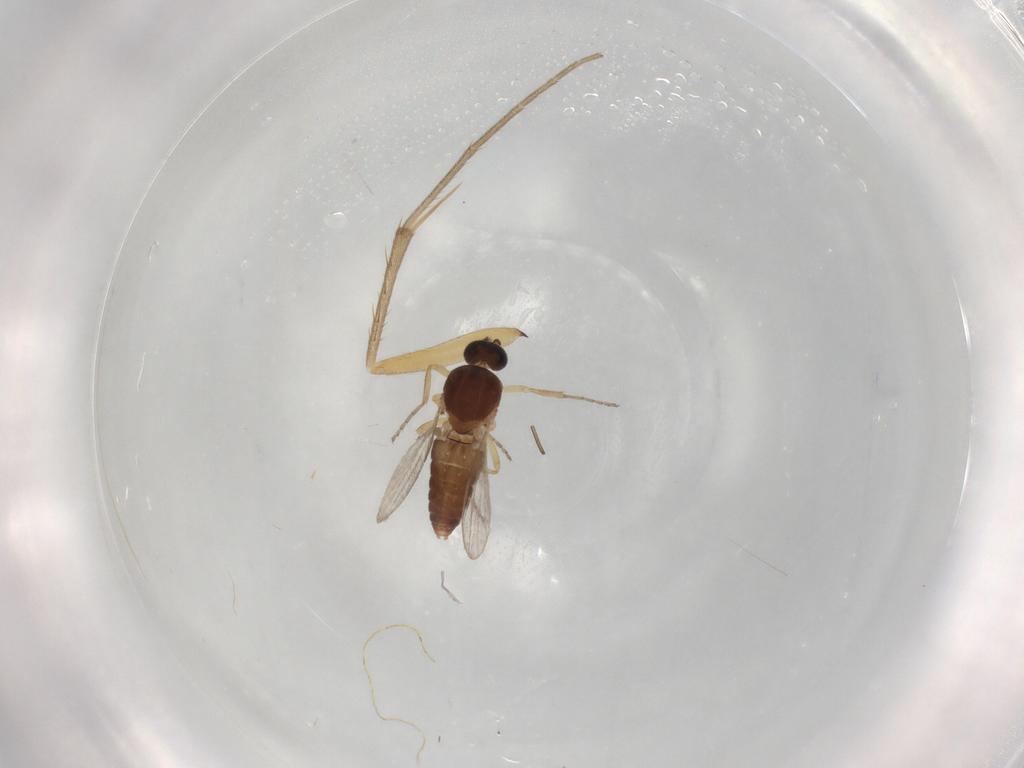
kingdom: Animalia
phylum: Arthropoda
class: Insecta
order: Diptera
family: Mycetophilidae
